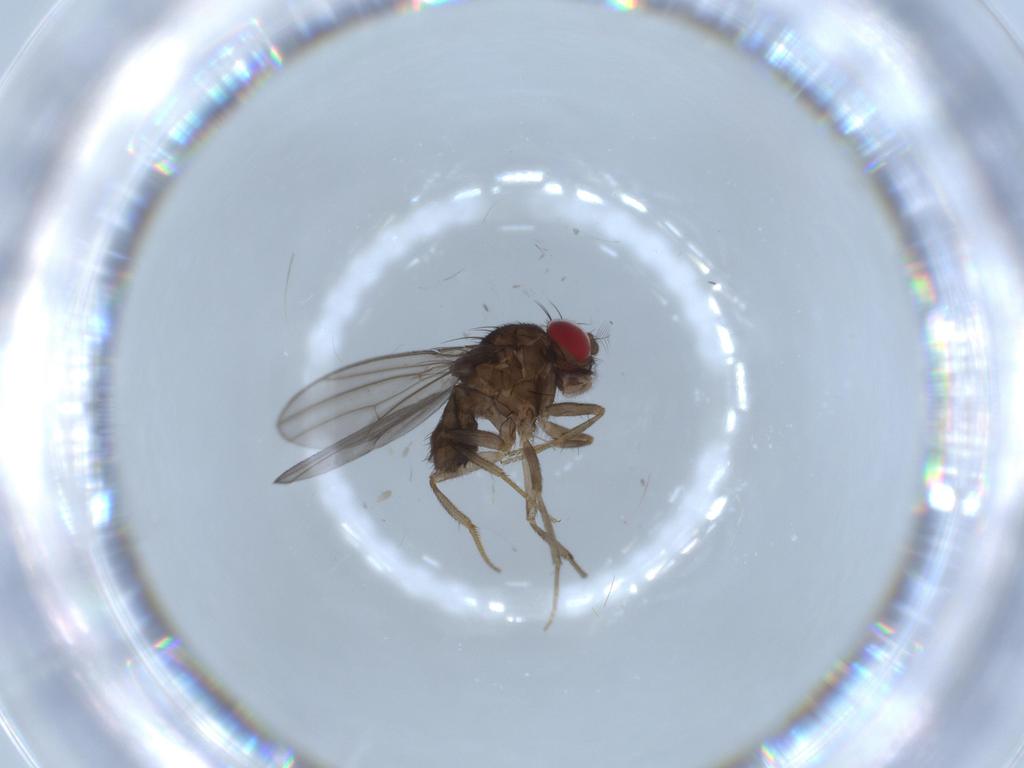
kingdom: Animalia
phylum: Arthropoda
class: Insecta
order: Diptera
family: Drosophilidae
